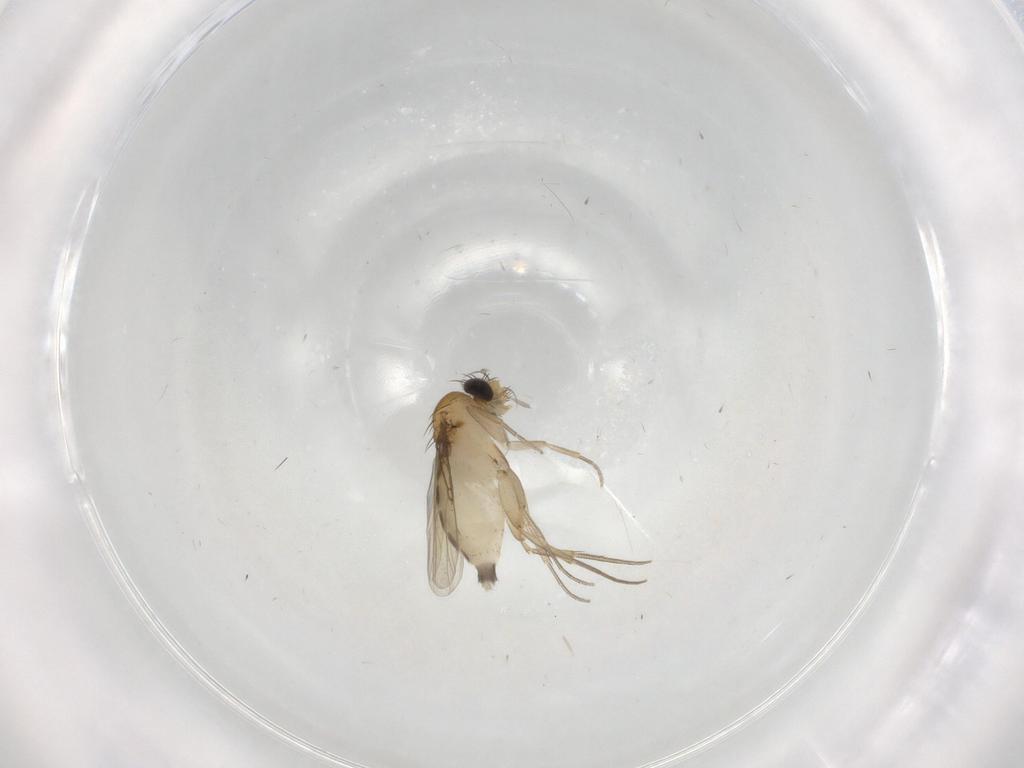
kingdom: Animalia
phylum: Arthropoda
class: Insecta
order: Diptera
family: Phoridae
